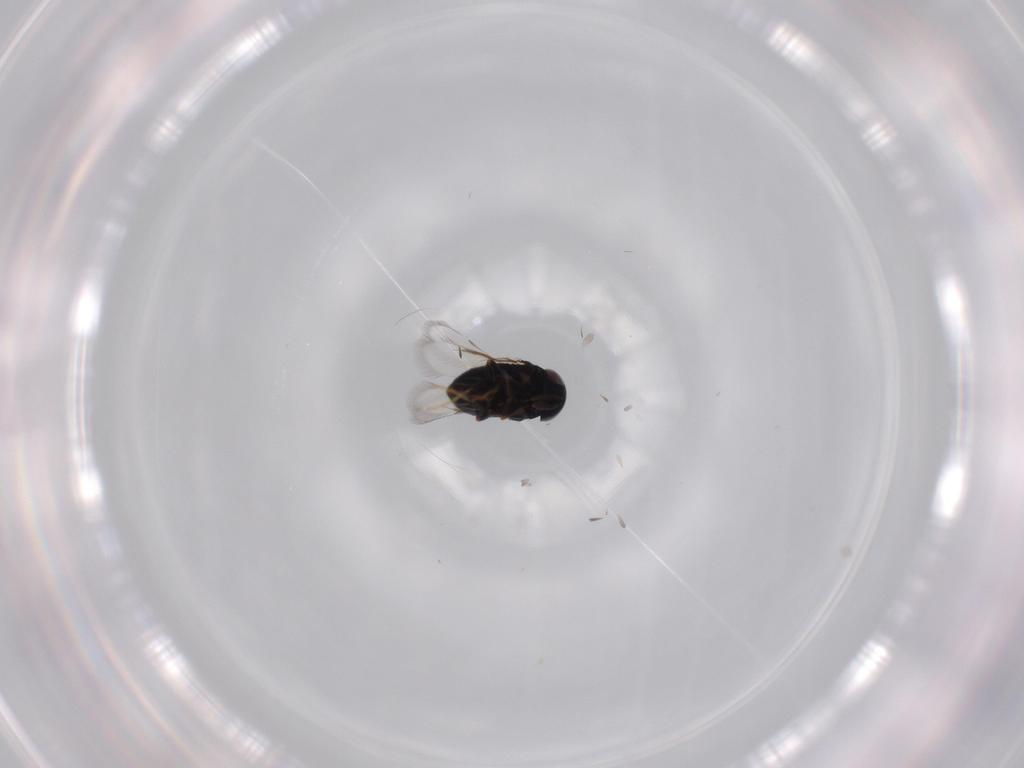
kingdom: Animalia
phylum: Arthropoda
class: Insecta
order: Hymenoptera
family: Signiphoridae
